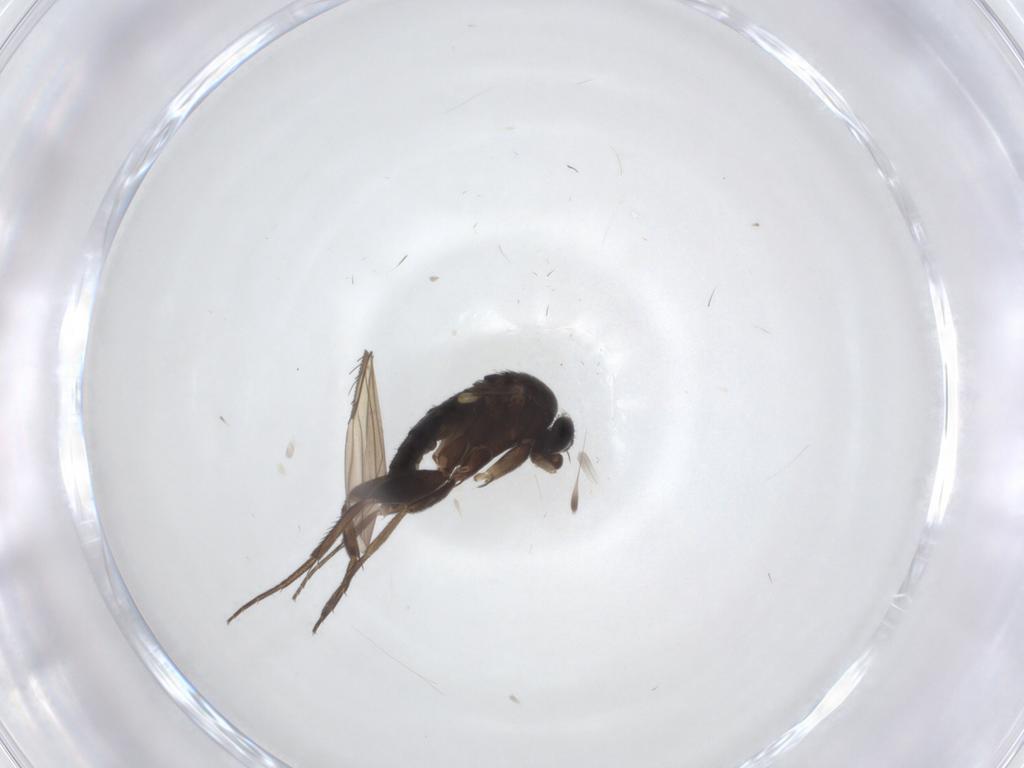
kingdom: Animalia
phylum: Arthropoda
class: Insecta
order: Diptera
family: Phoridae
